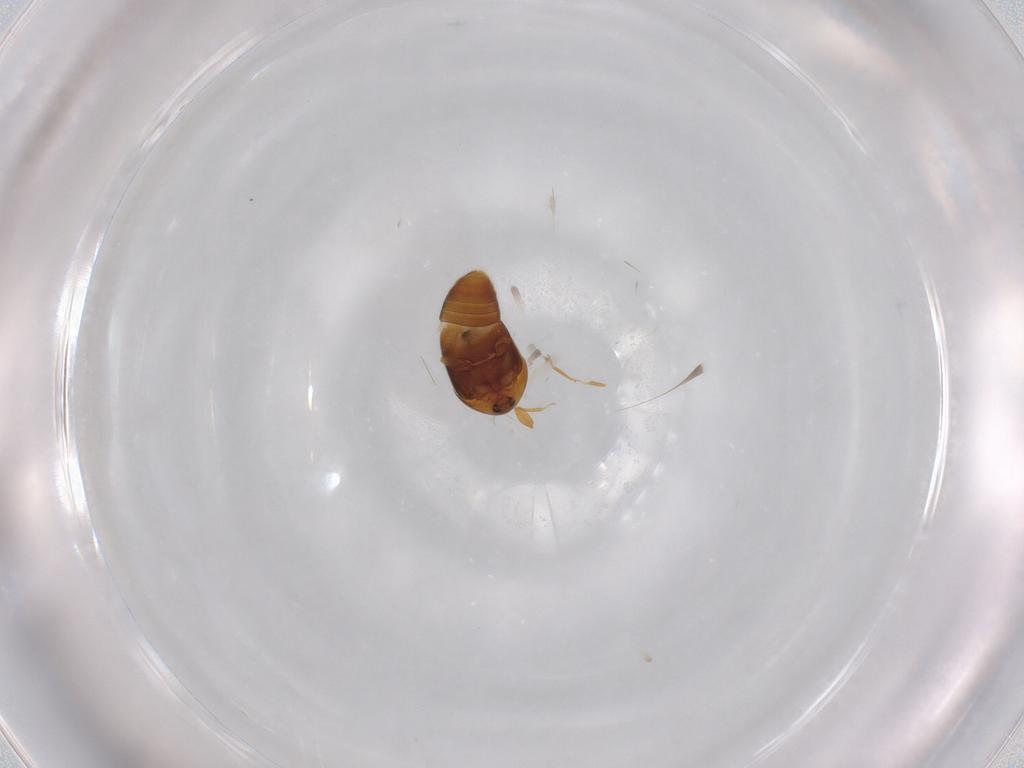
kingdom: Animalia
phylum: Arthropoda
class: Insecta
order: Coleoptera
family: Corylophidae
